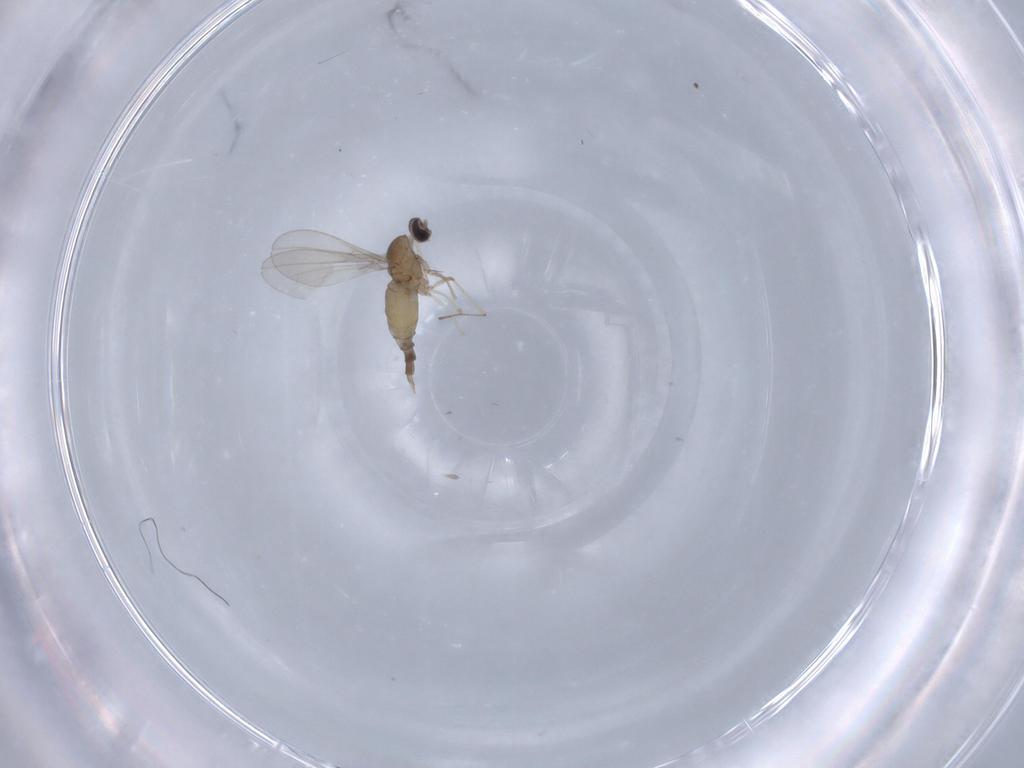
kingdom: Animalia
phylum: Arthropoda
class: Insecta
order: Diptera
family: Cecidomyiidae
